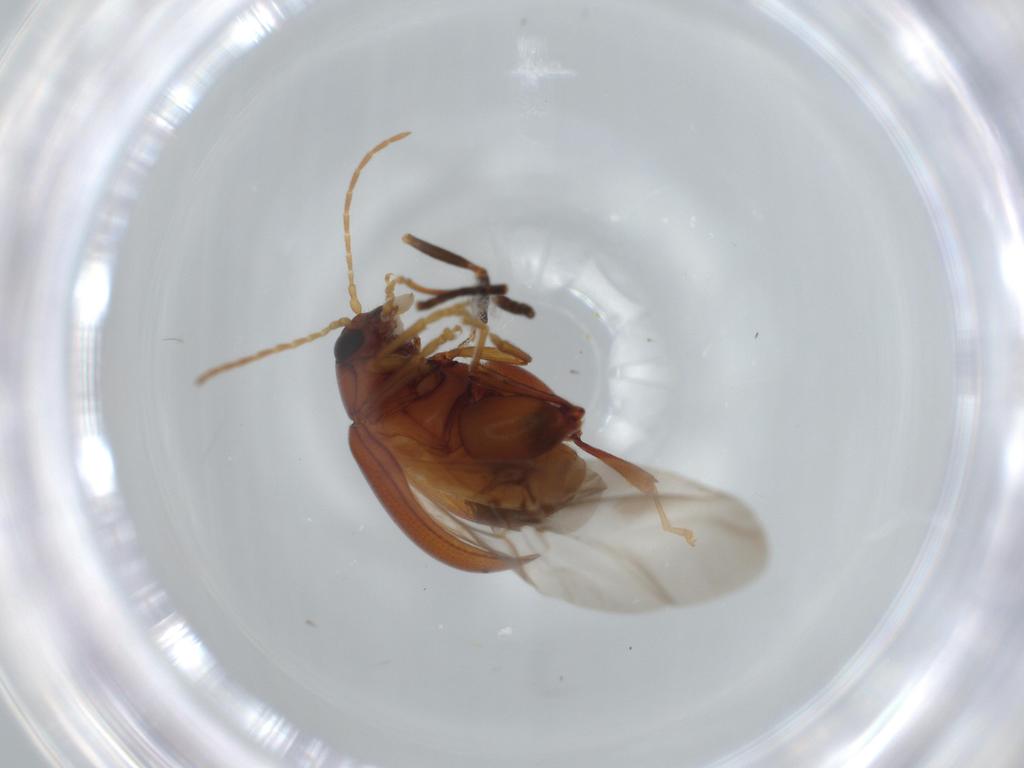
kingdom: Animalia
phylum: Arthropoda
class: Insecta
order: Coleoptera
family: Chrysomelidae
